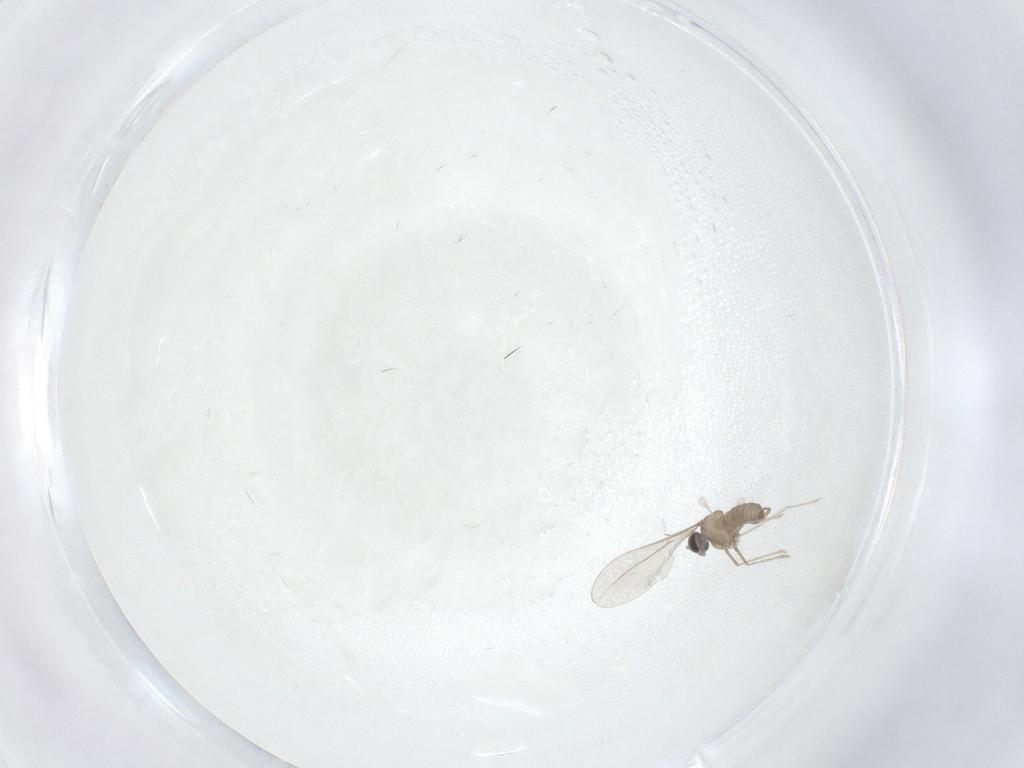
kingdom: Animalia
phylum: Arthropoda
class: Insecta
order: Diptera
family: Cecidomyiidae
